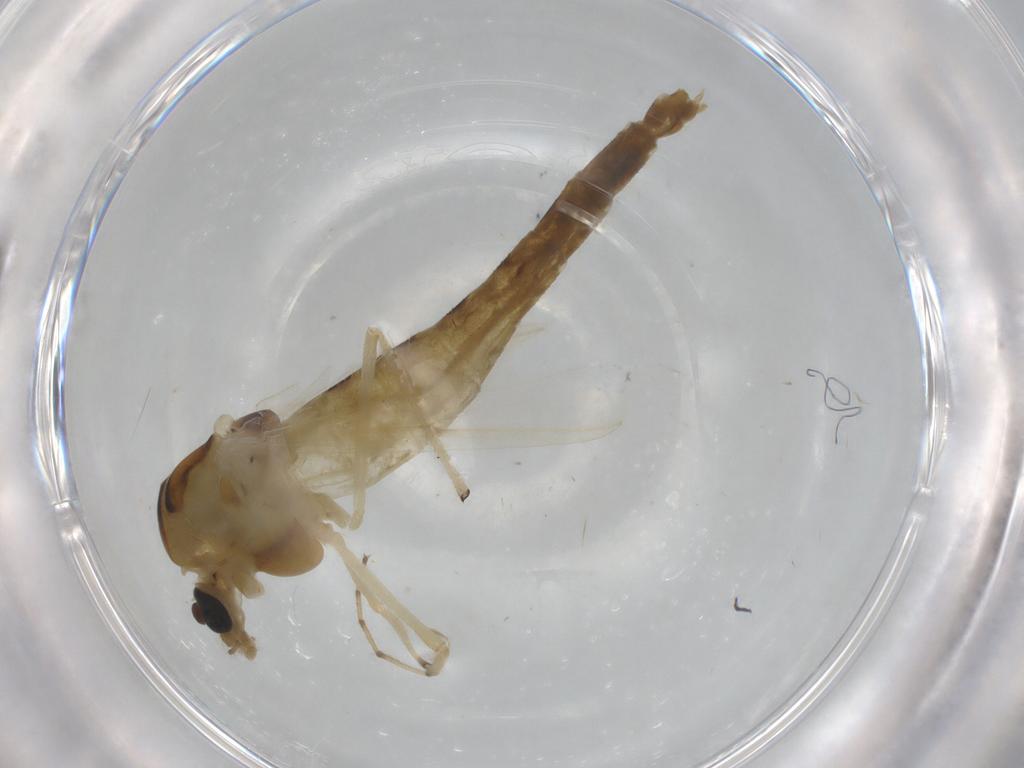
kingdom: Animalia
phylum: Arthropoda
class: Insecta
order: Diptera
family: Chironomidae
